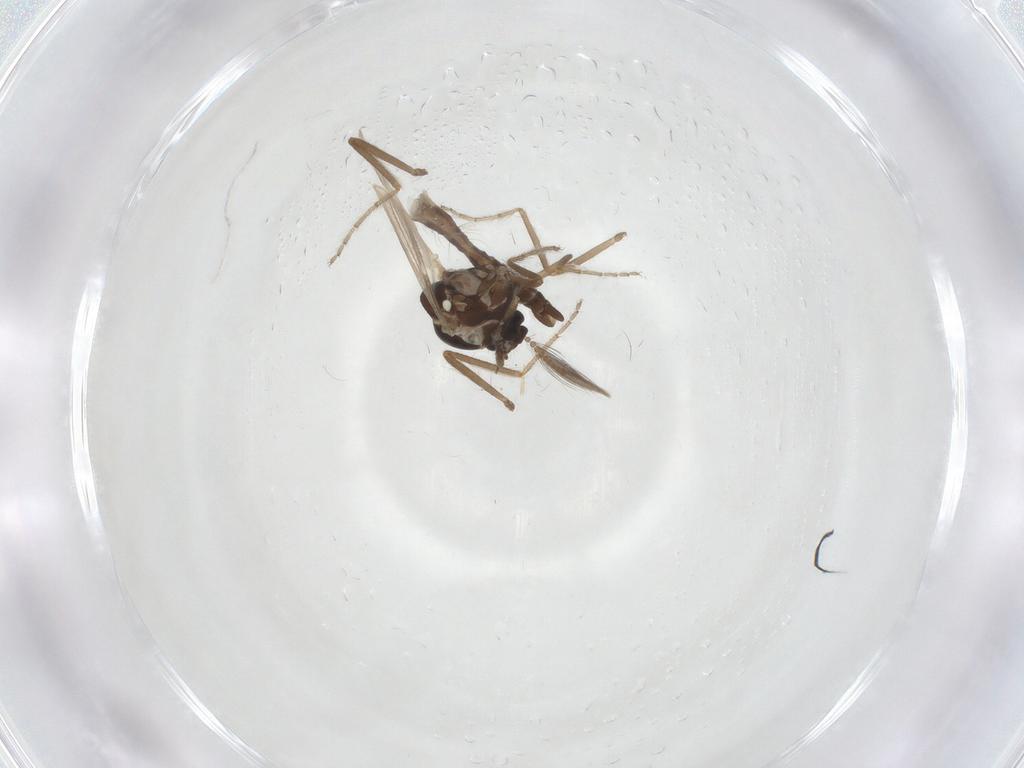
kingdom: Animalia
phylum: Arthropoda
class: Insecta
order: Diptera
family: Ceratopogonidae
